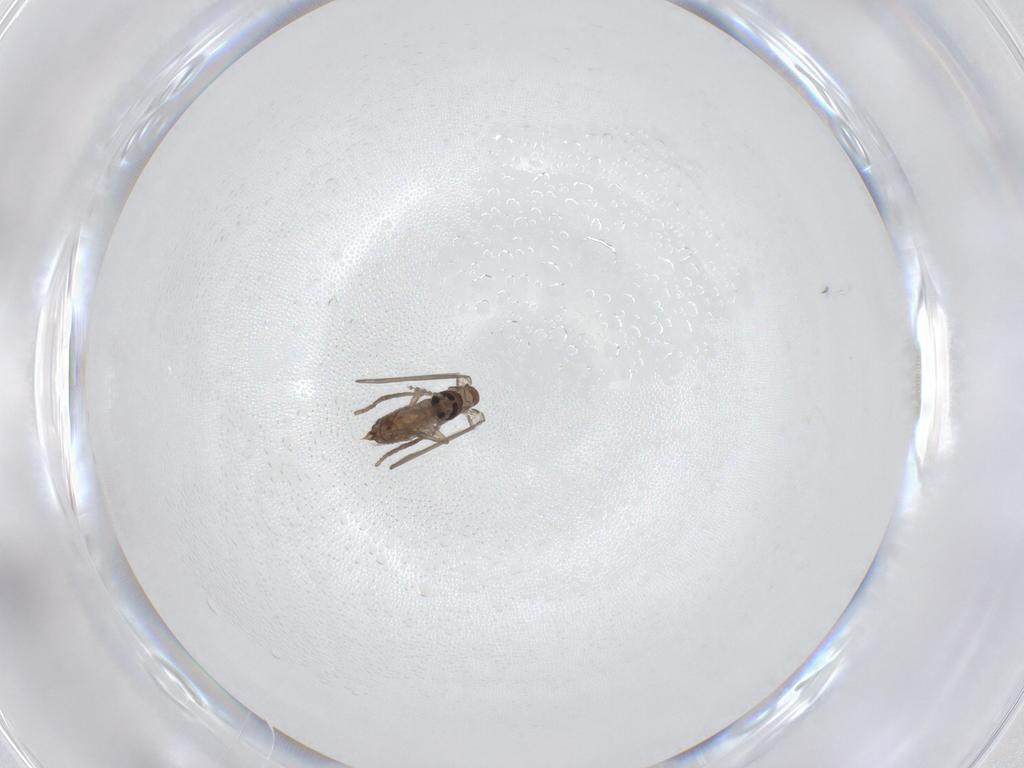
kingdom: Animalia
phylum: Arthropoda
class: Insecta
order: Diptera
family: Psychodidae
